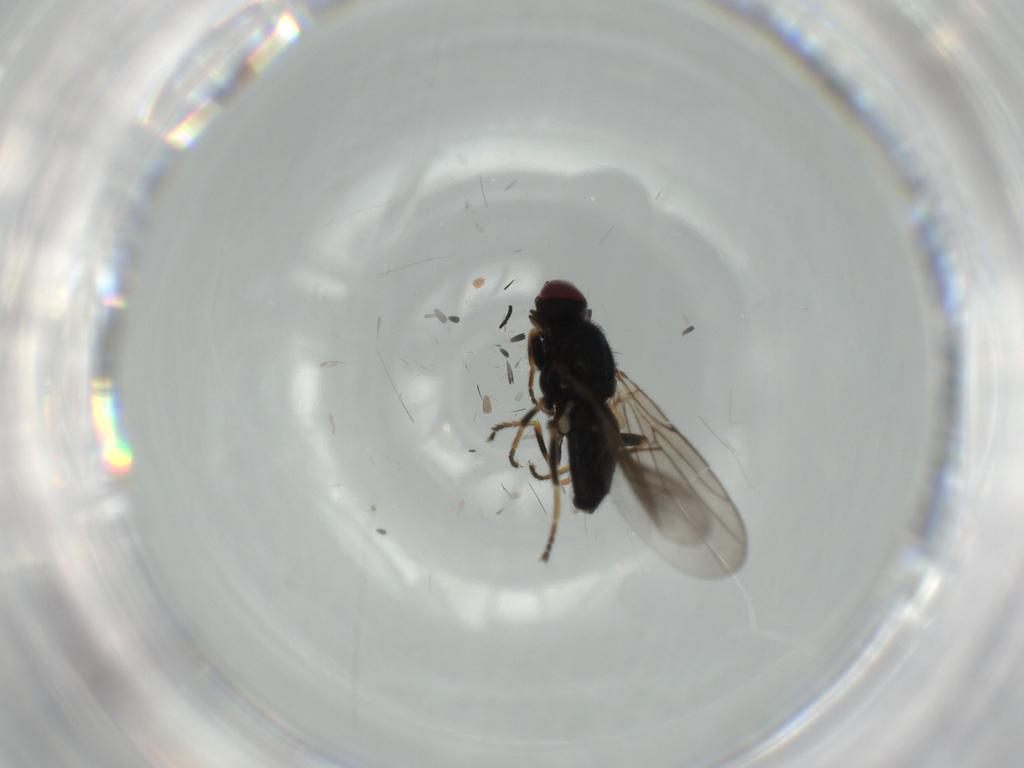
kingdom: Animalia
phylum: Arthropoda
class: Insecta
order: Diptera
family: Chloropidae
